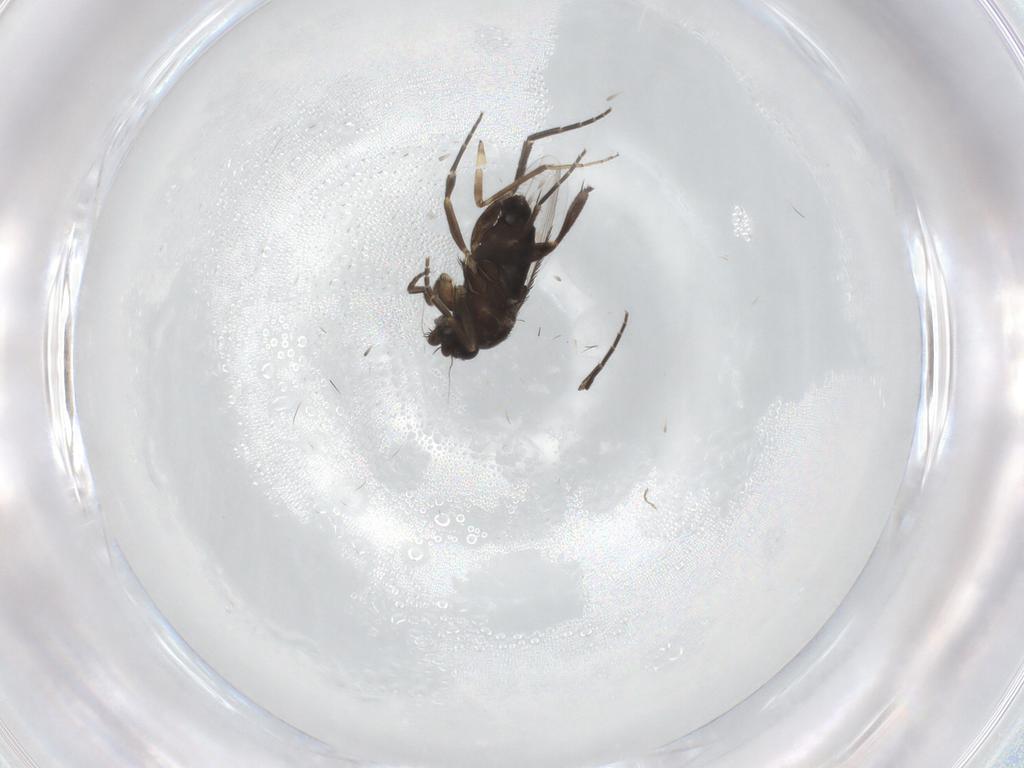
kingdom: Animalia
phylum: Arthropoda
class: Insecta
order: Diptera
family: Phoridae
